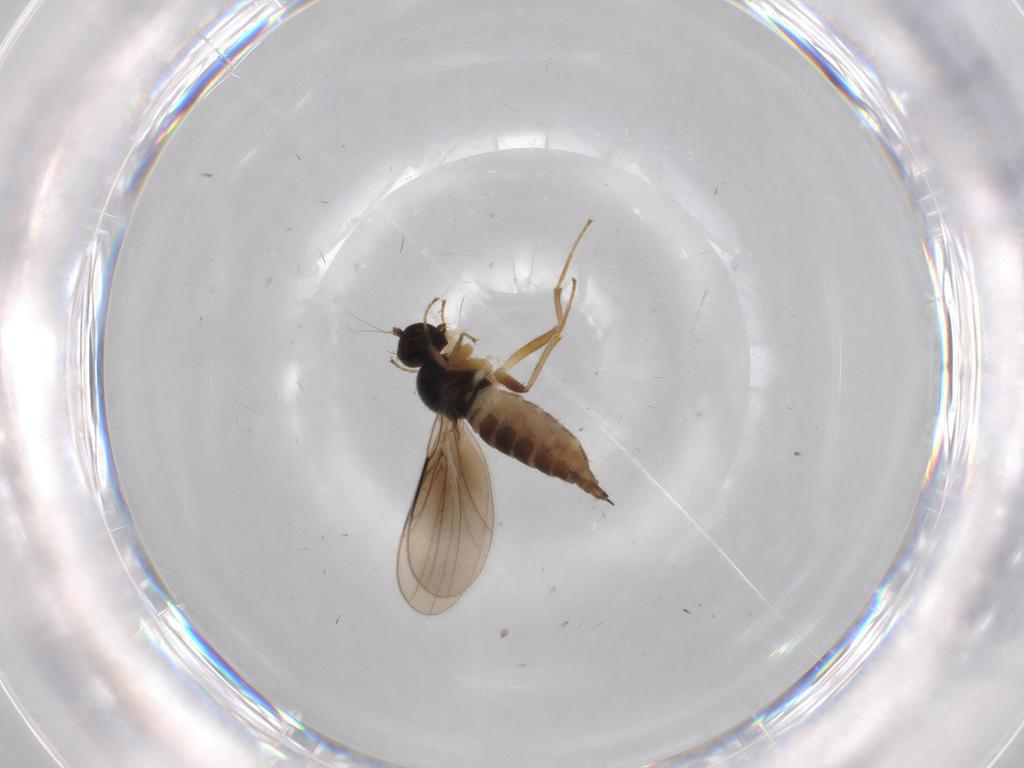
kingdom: Animalia
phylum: Arthropoda
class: Insecta
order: Diptera
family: Hybotidae
